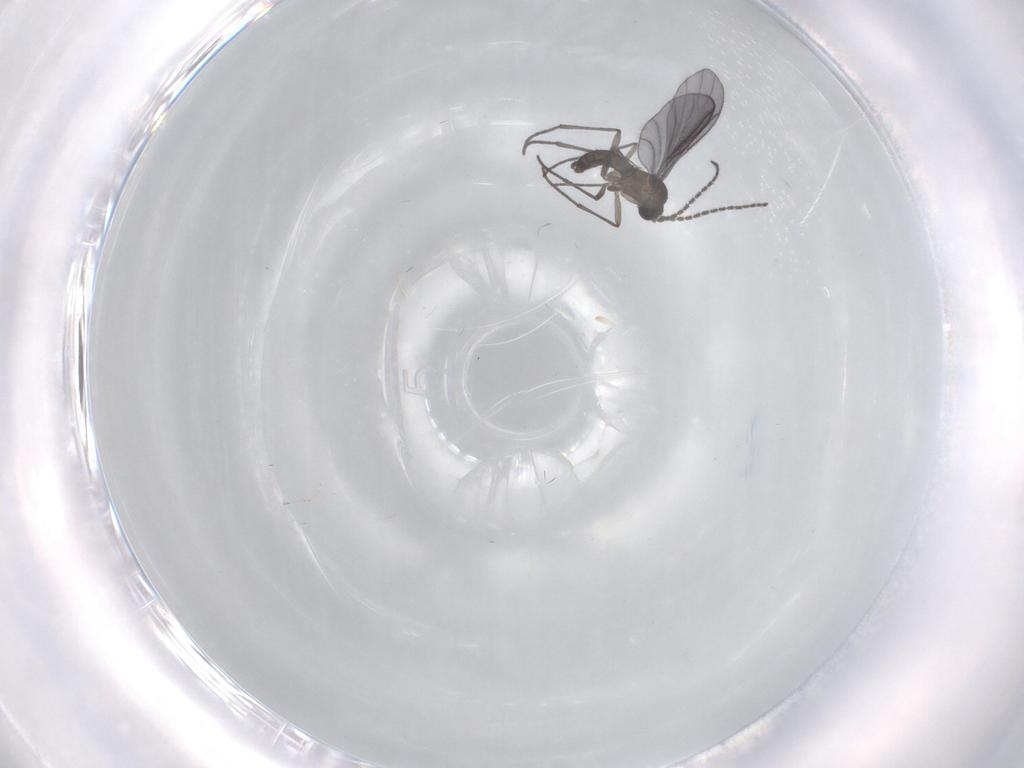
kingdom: Animalia
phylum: Arthropoda
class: Insecta
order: Diptera
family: Sciaridae
